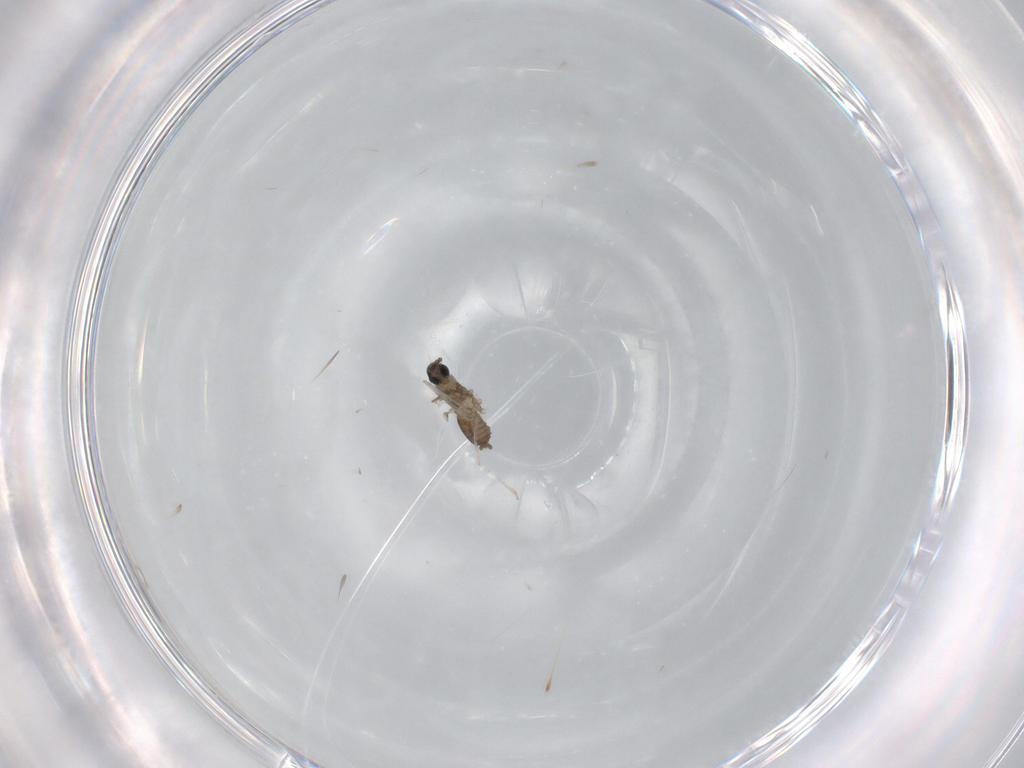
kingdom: Animalia
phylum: Arthropoda
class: Insecta
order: Diptera
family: Cecidomyiidae
